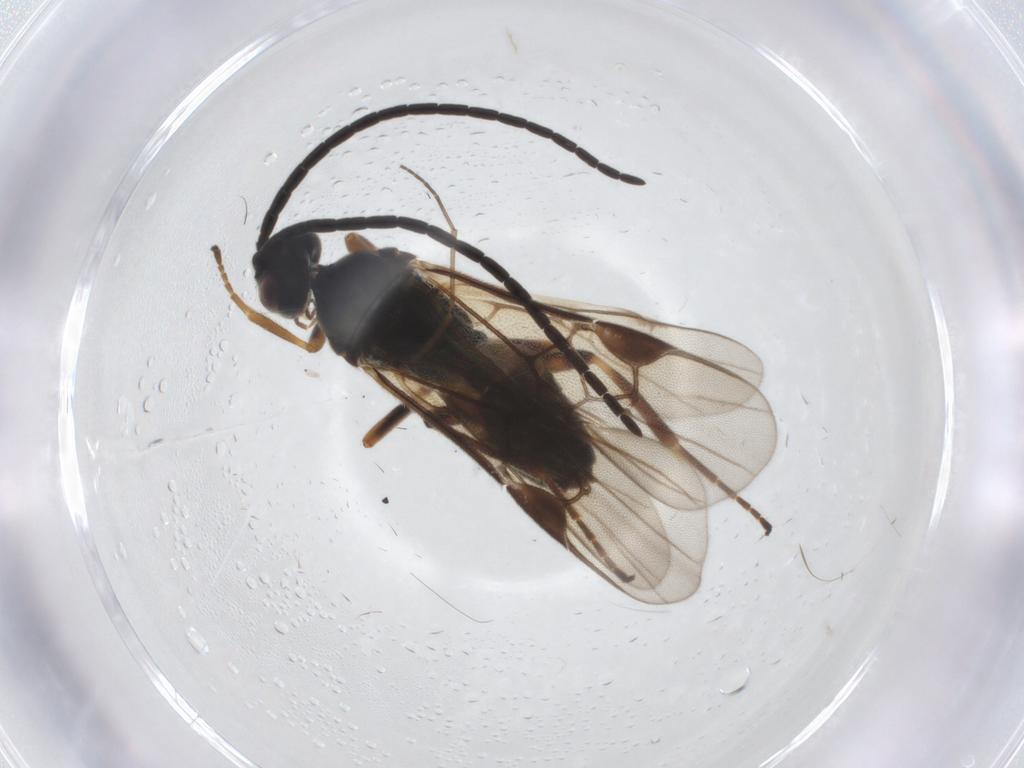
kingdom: Animalia
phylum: Arthropoda
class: Insecta
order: Hymenoptera
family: Braconidae
